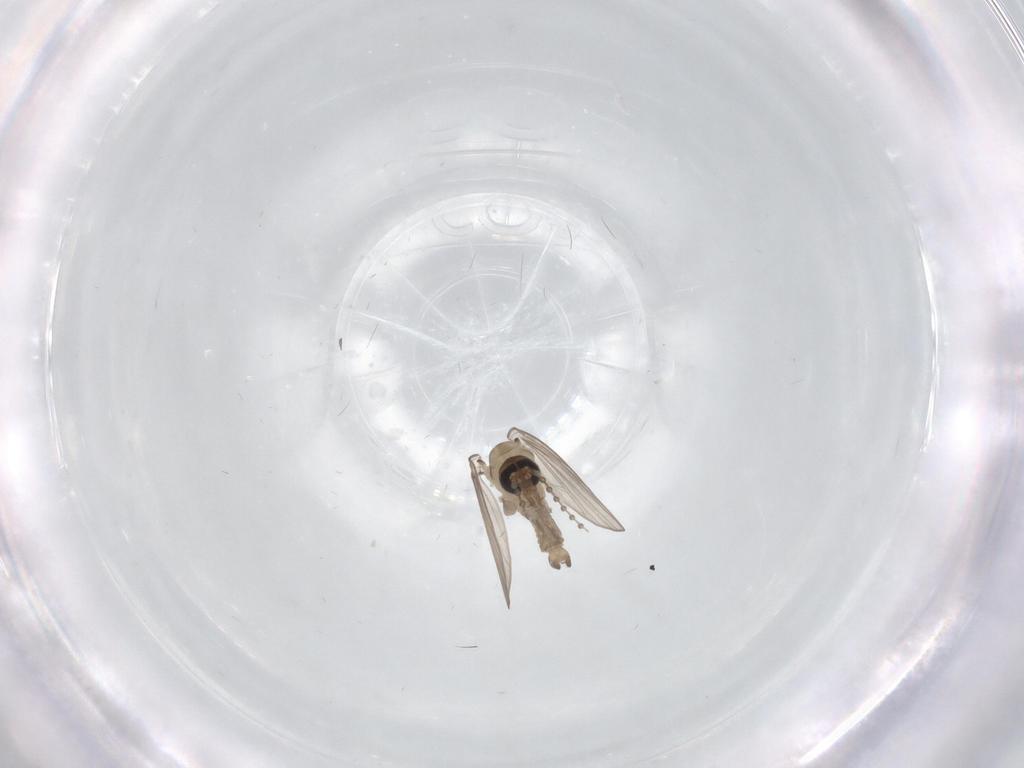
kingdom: Animalia
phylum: Arthropoda
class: Insecta
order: Diptera
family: Psychodidae
